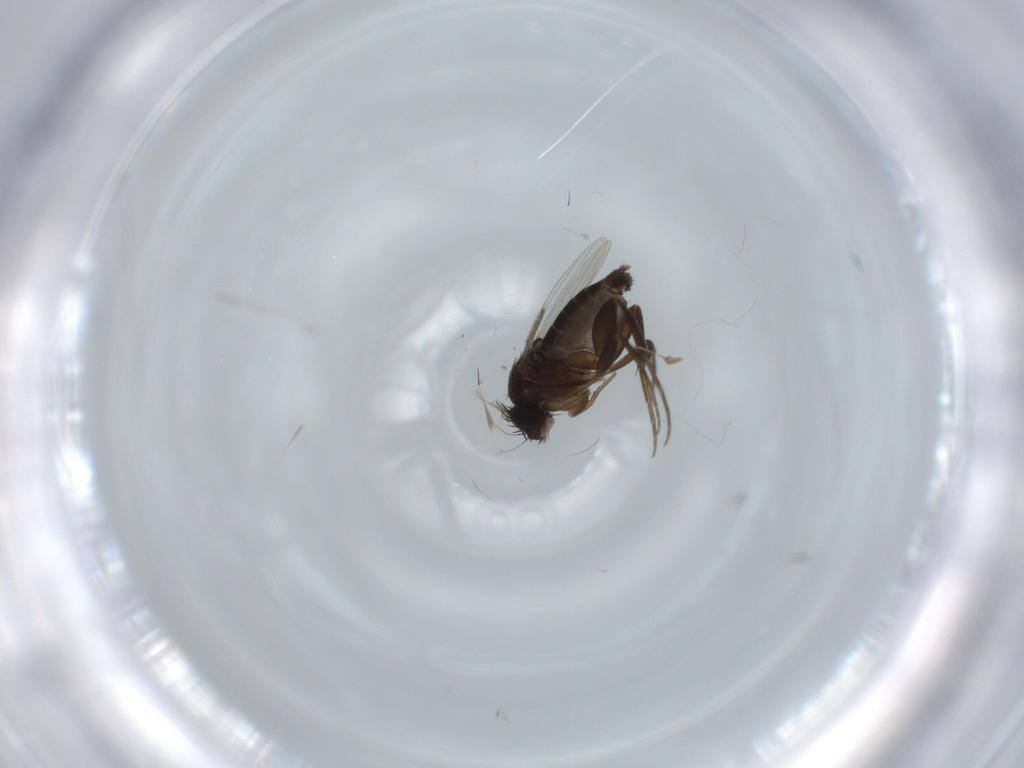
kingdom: Animalia
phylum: Arthropoda
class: Insecta
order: Diptera
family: Phoridae
